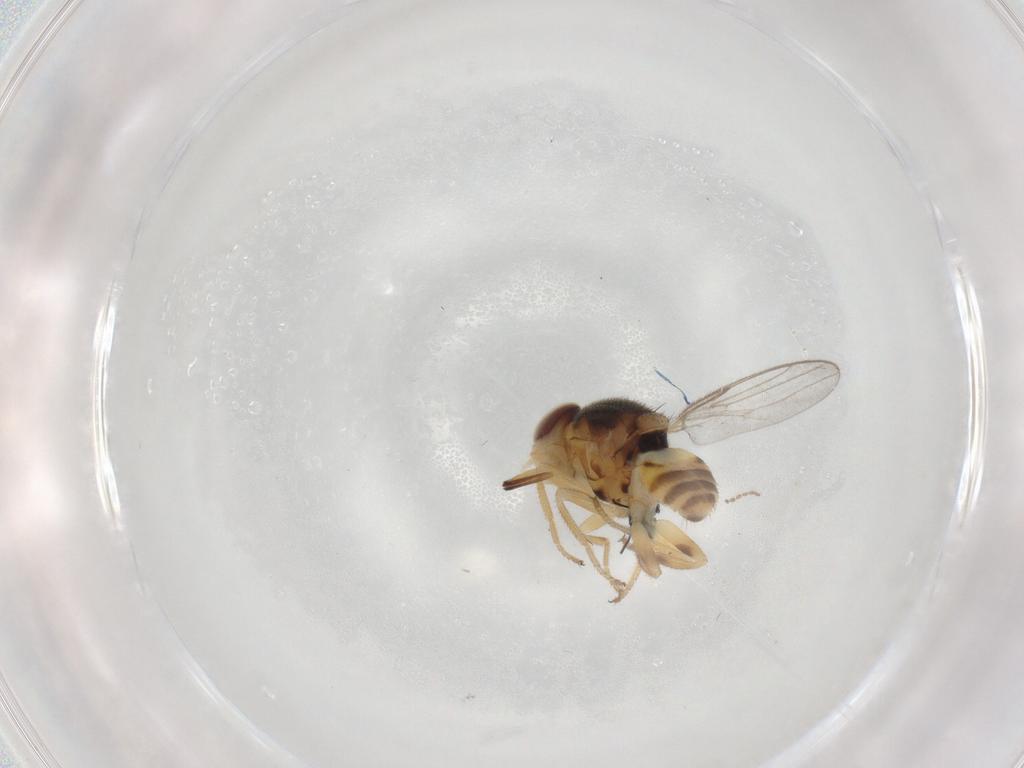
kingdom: Animalia
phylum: Arthropoda
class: Insecta
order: Diptera
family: Chloropidae
